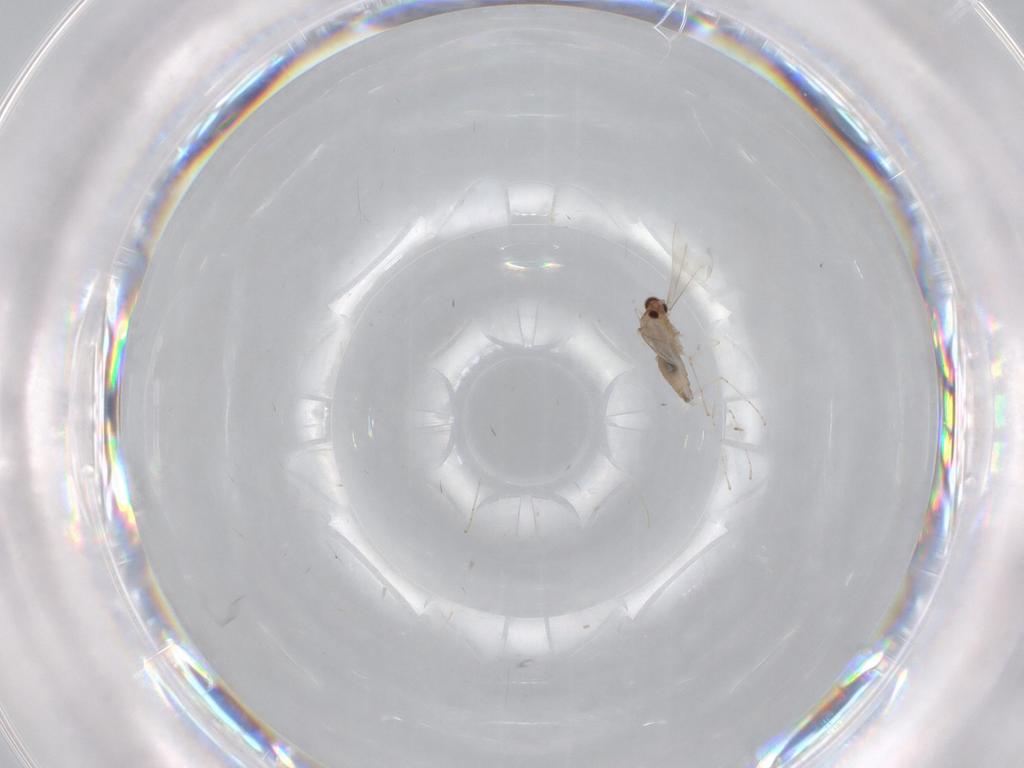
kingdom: Animalia
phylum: Arthropoda
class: Insecta
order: Diptera
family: Cecidomyiidae
